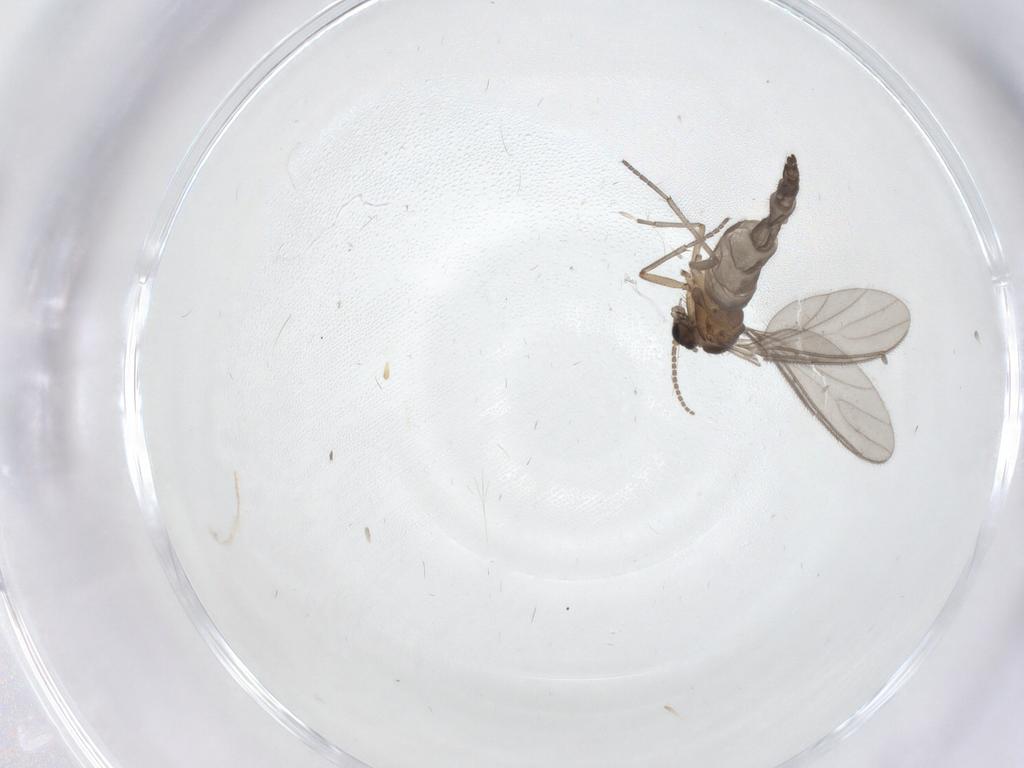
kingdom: Animalia
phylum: Arthropoda
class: Insecta
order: Diptera
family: Sciaridae
